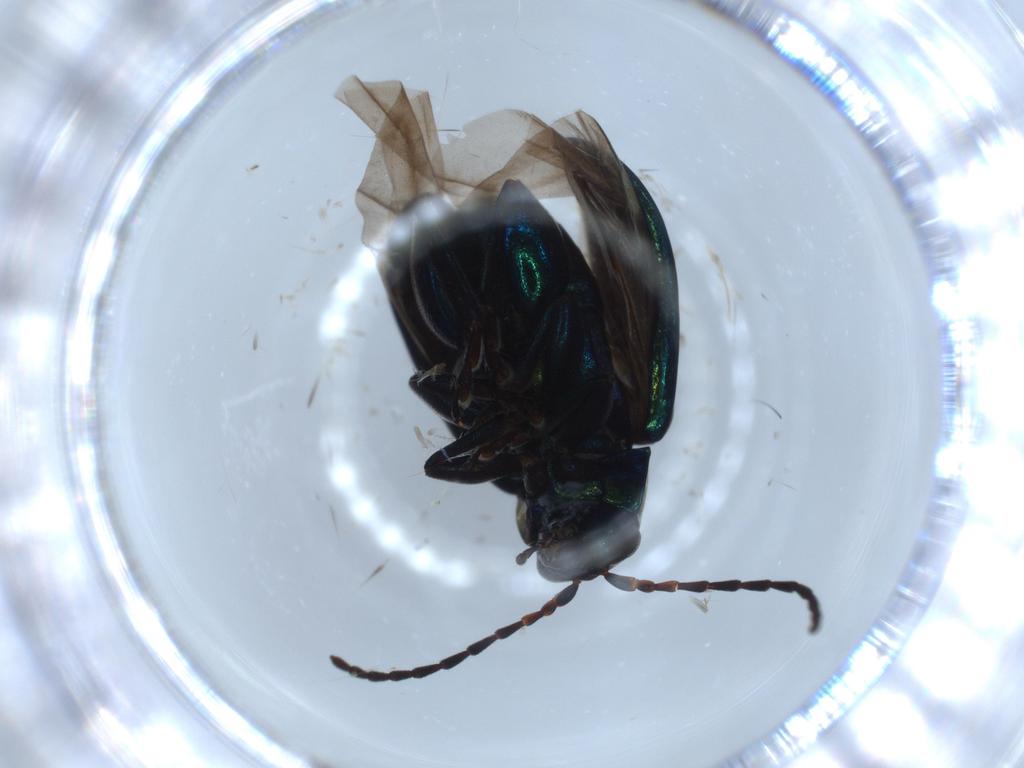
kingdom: Animalia
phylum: Arthropoda
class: Insecta
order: Coleoptera
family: Chrysomelidae
